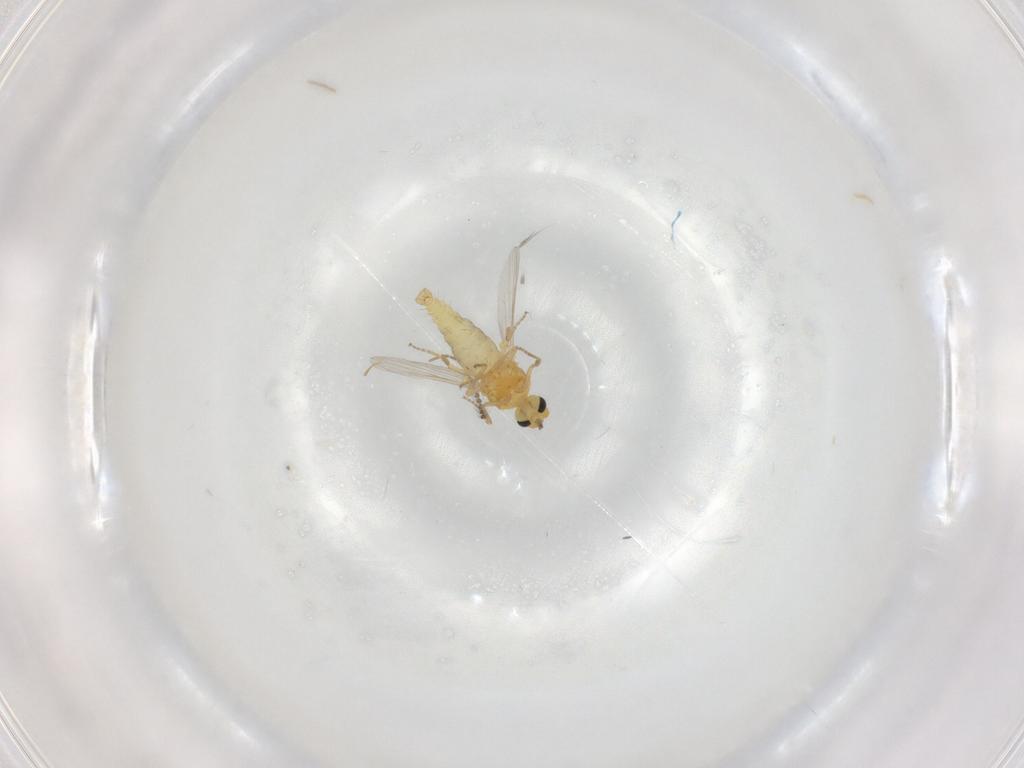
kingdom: Animalia
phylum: Arthropoda
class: Insecta
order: Diptera
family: Ceratopogonidae
